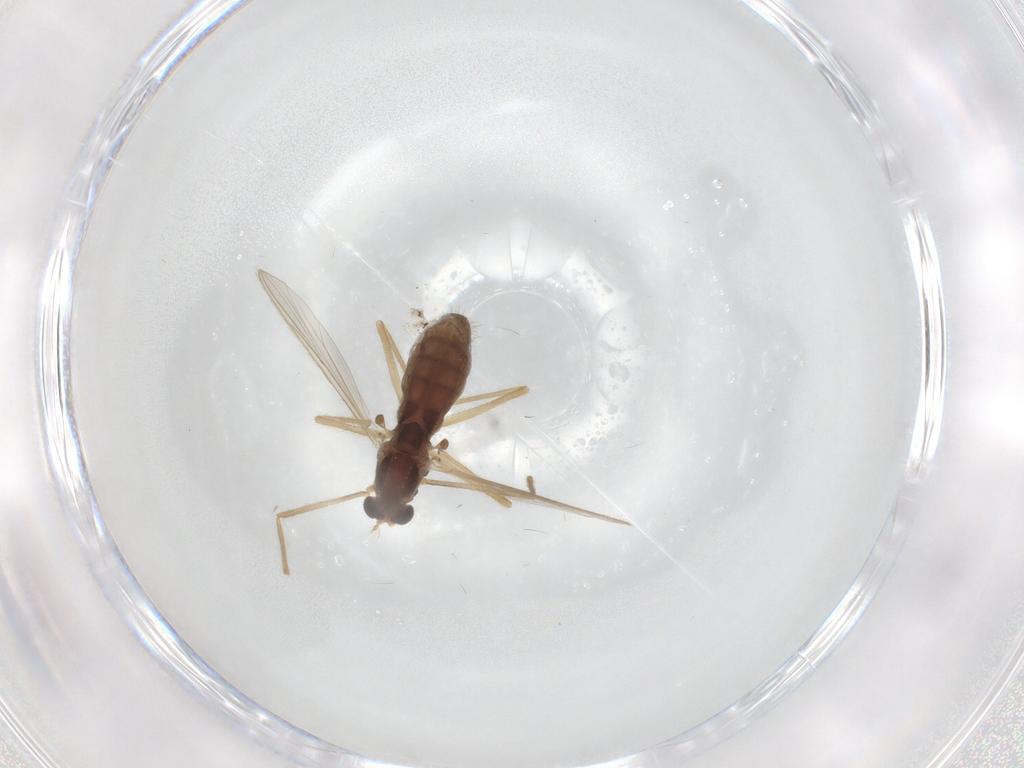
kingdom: Animalia
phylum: Arthropoda
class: Insecta
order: Diptera
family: Chironomidae
